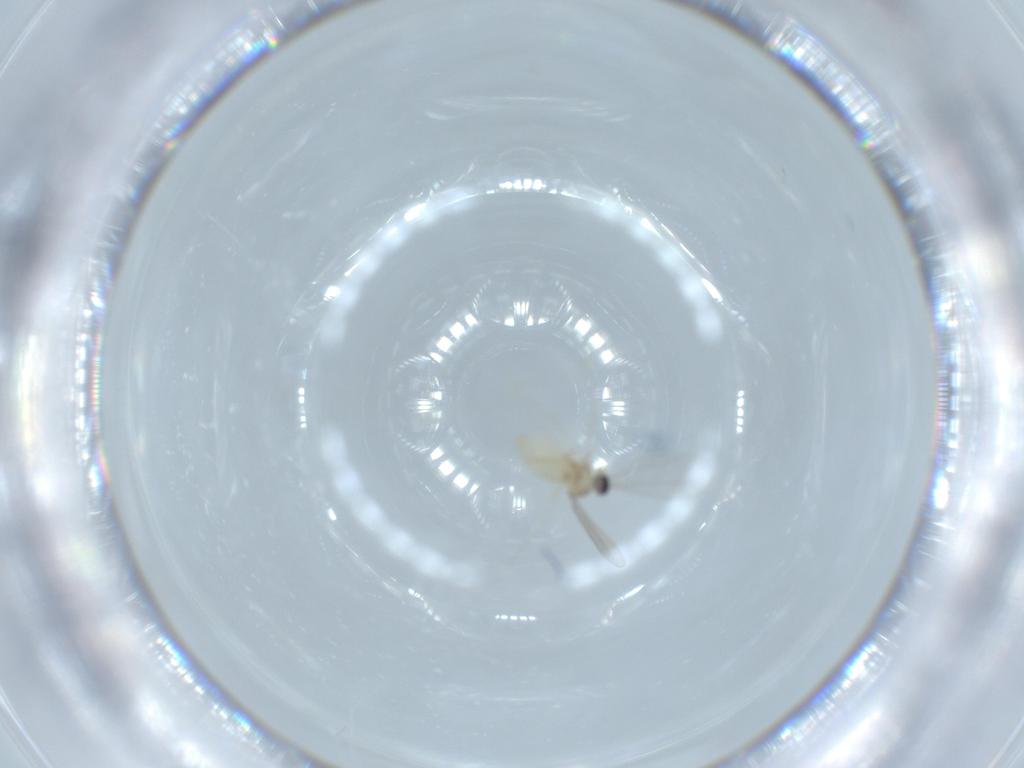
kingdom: Animalia
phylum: Arthropoda
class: Insecta
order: Diptera
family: Cecidomyiidae
